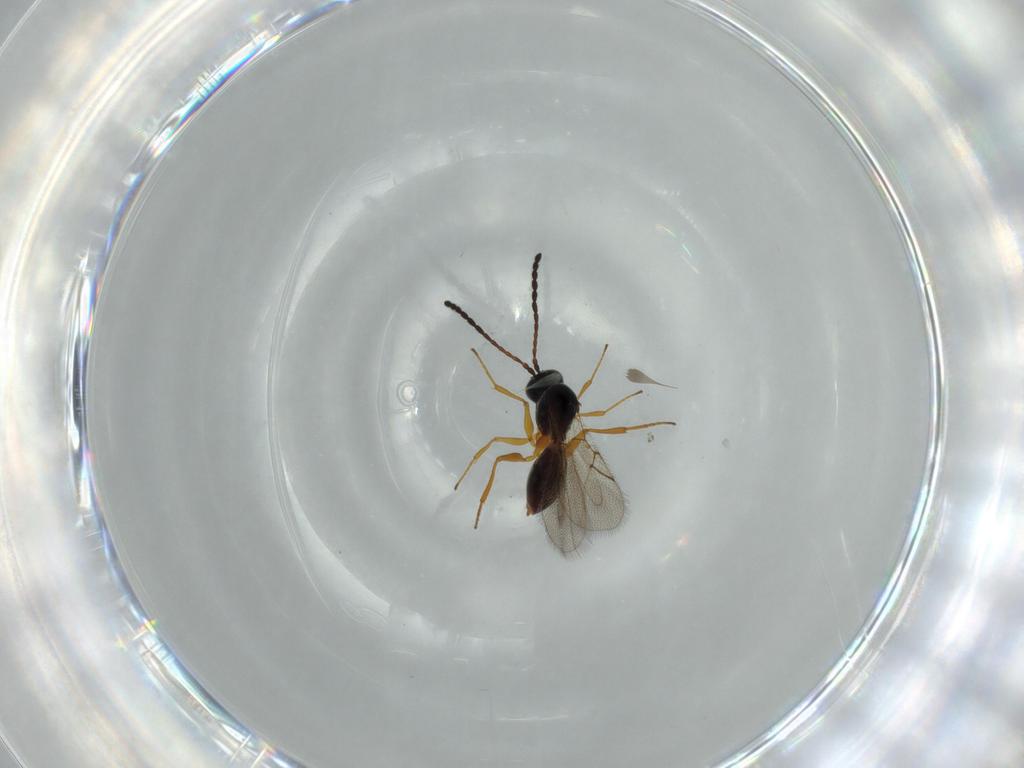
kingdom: Animalia
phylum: Arthropoda
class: Insecta
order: Hymenoptera
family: Figitidae
